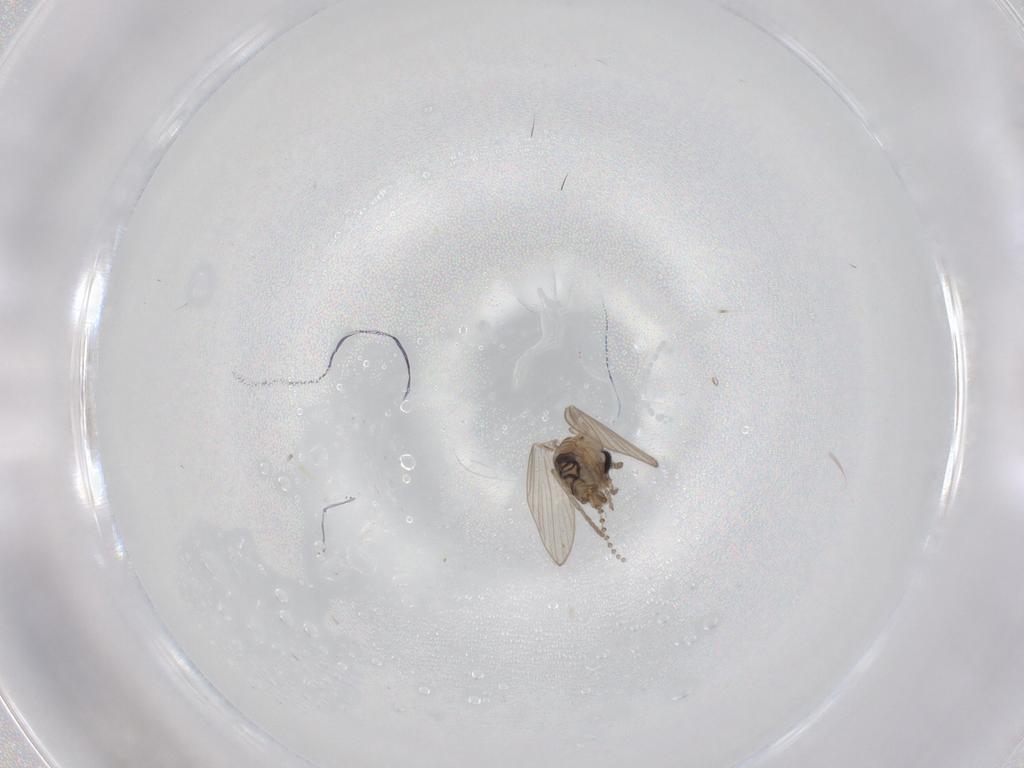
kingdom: Animalia
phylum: Arthropoda
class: Insecta
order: Diptera
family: Psychodidae
